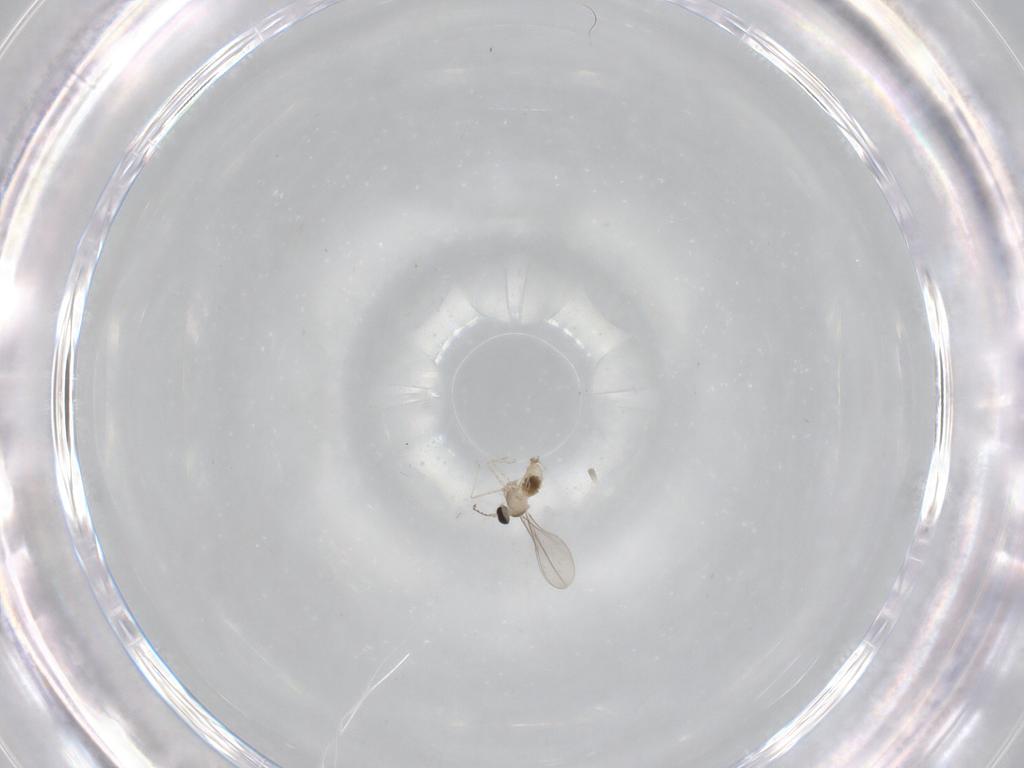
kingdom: Animalia
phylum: Arthropoda
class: Insecta
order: Diptera
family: Cecidomyiidae
